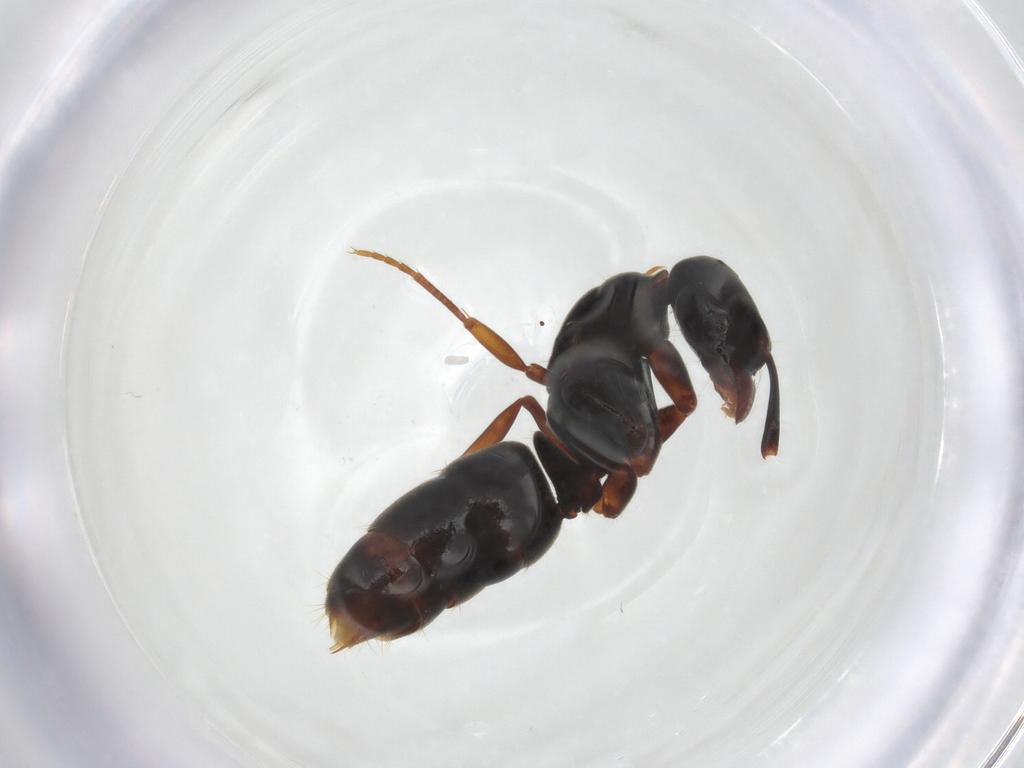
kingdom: Animalia
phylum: Arthropoda
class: Insecta
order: Hymenoptera
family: Formicidae
